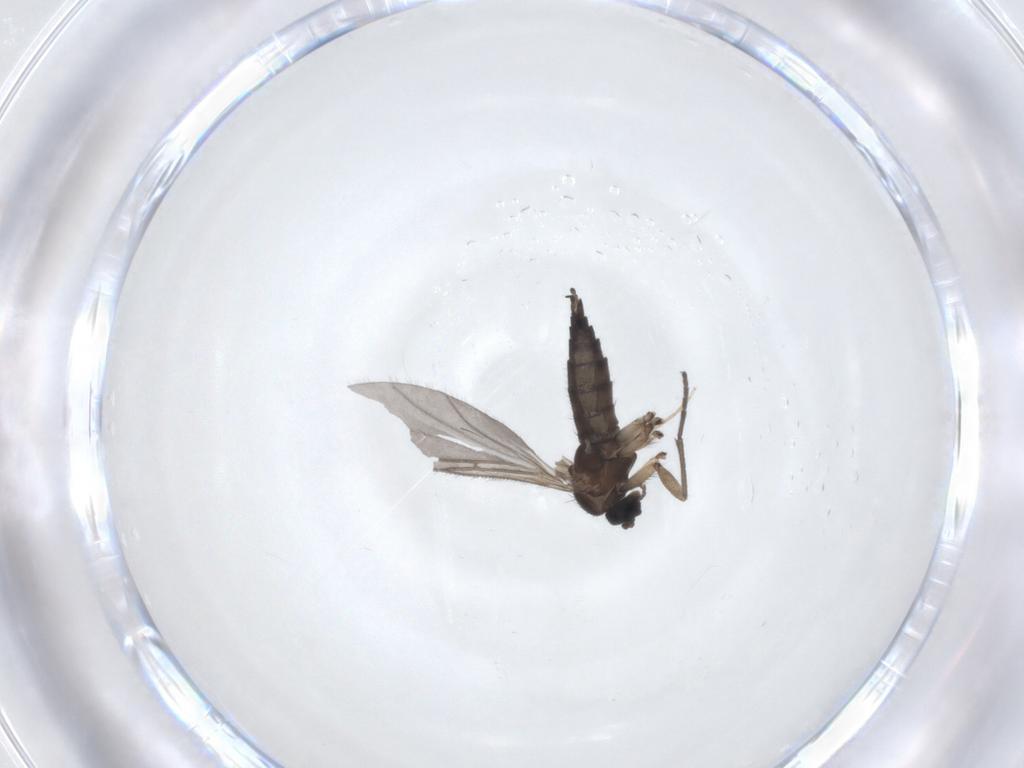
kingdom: Animalia
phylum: Arthropoda
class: Insecta
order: Diptera
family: Sciaridae
